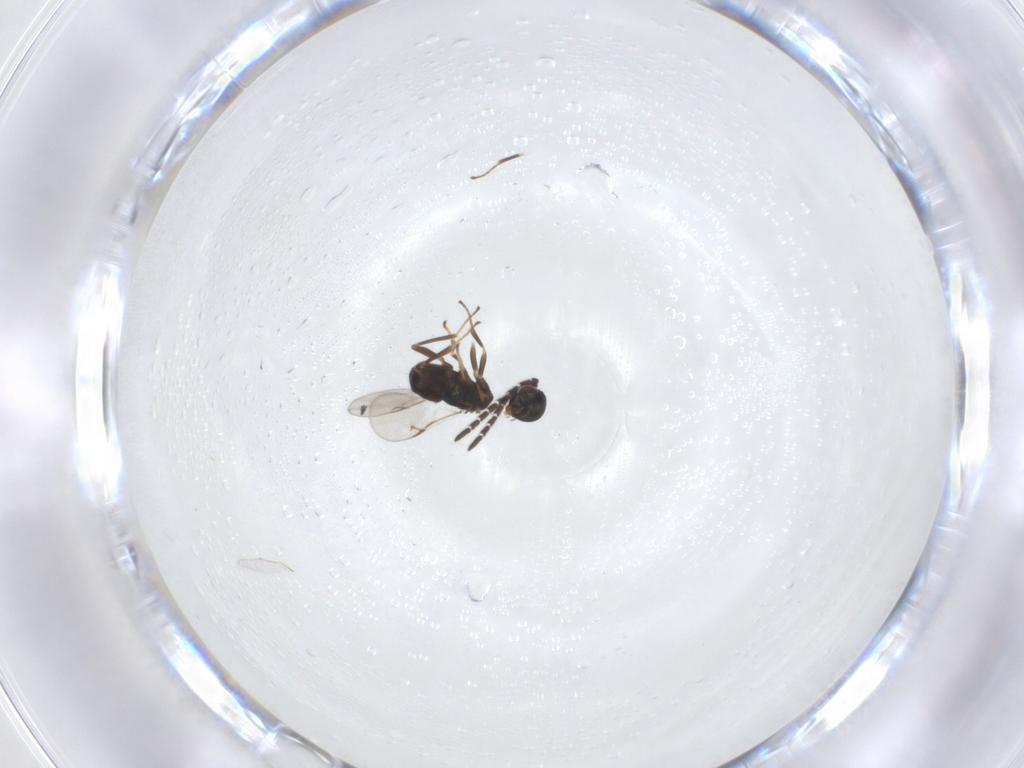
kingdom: Animalia
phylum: Arthropoda
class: Insecta
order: Hymenoptera
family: Encyrtidae
